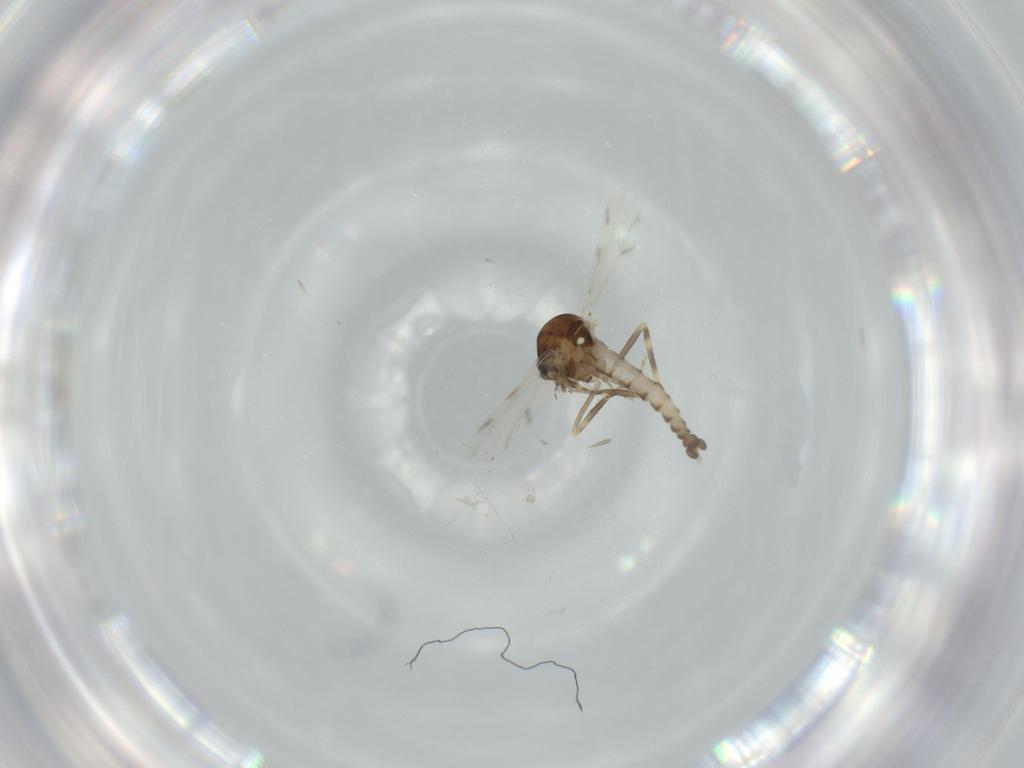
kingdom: Animalia
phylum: Arthropoda
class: Insecta
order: Diptera
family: Ceratopogonidae
